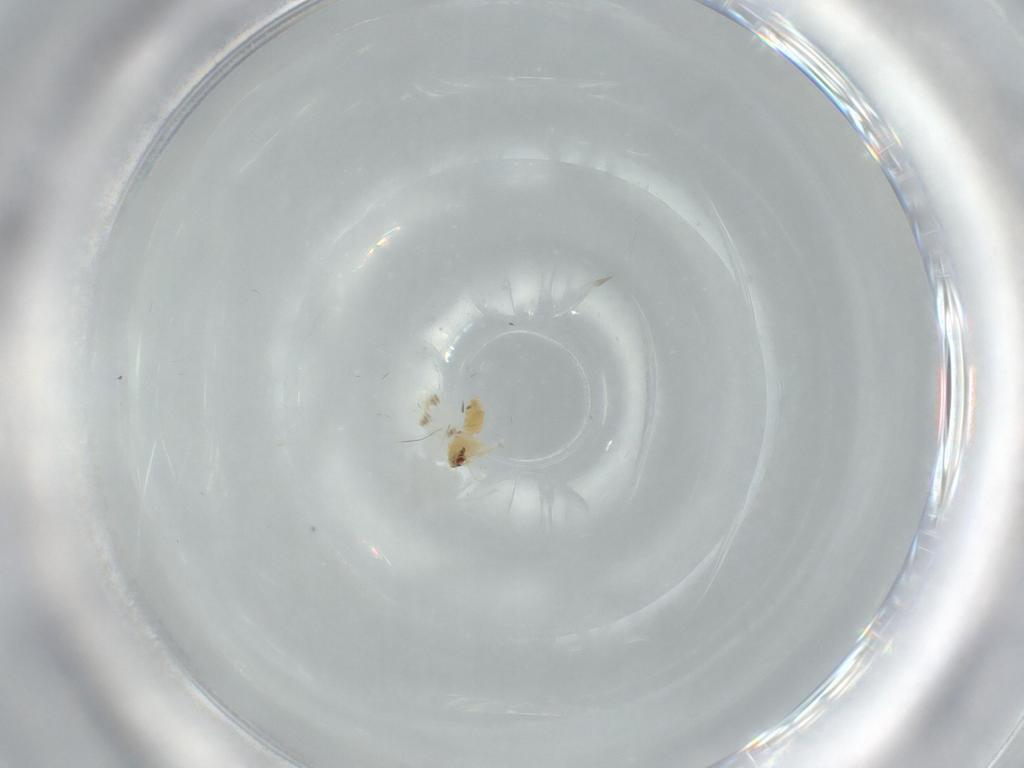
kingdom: Animalia
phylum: Arthropoda
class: Insecta
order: Hemiptera
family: Aleyrodidae
